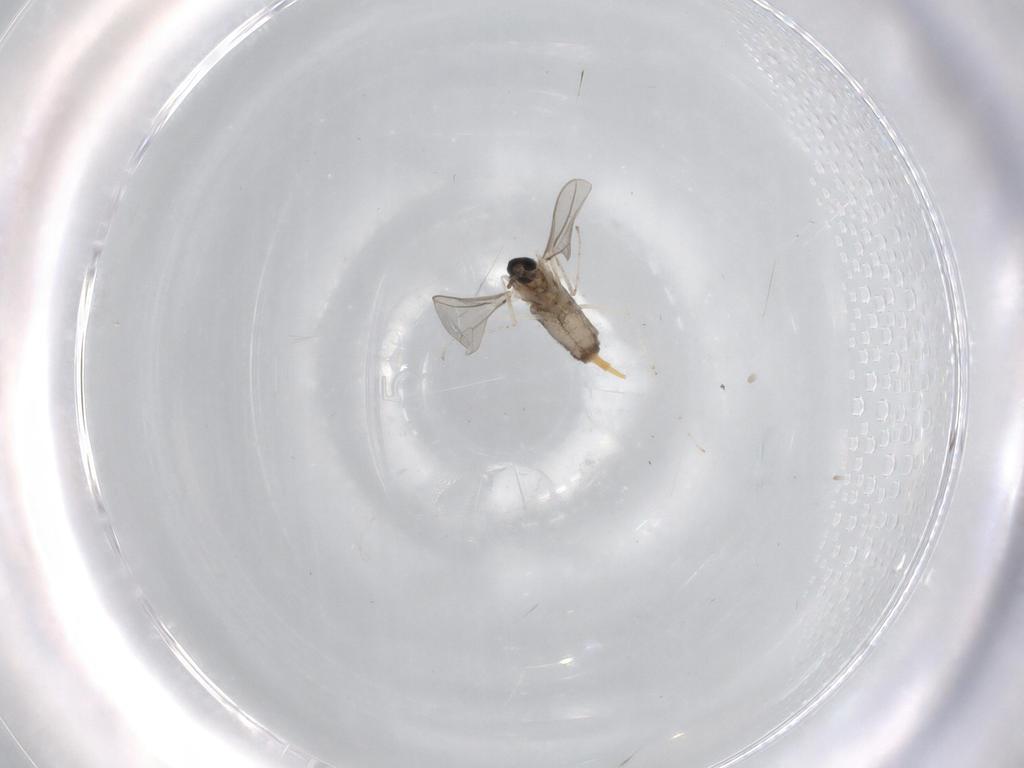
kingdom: Animalia
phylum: Arthropoda
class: Insecta
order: Diptera
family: Cecidomyiidae
